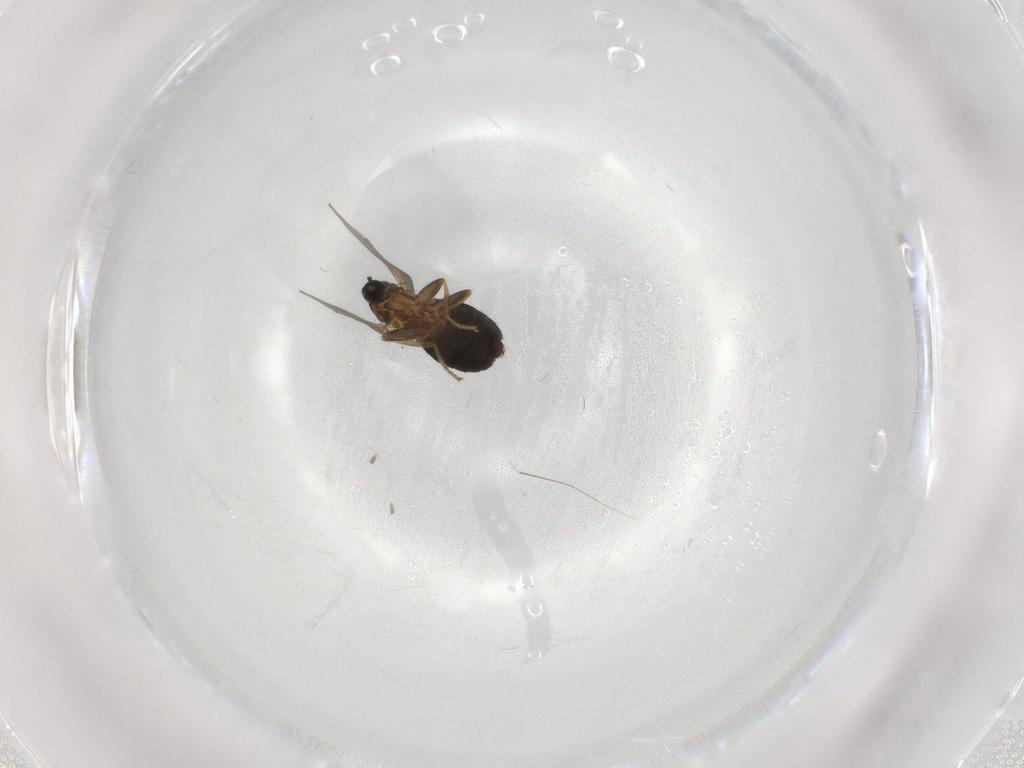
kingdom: Animalia
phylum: Arthropoda
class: Insecta
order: Diptera
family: Scatopsidae
